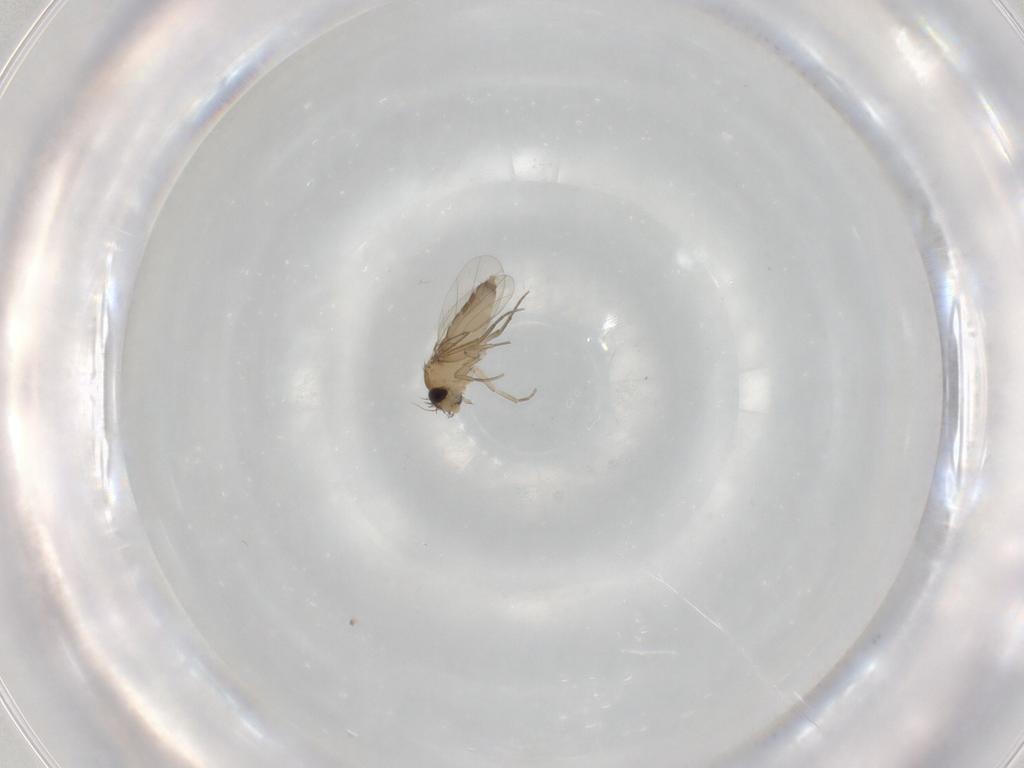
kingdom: Animalia
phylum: Arthropoda
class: Insecta
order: Diptera
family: Phoridae
